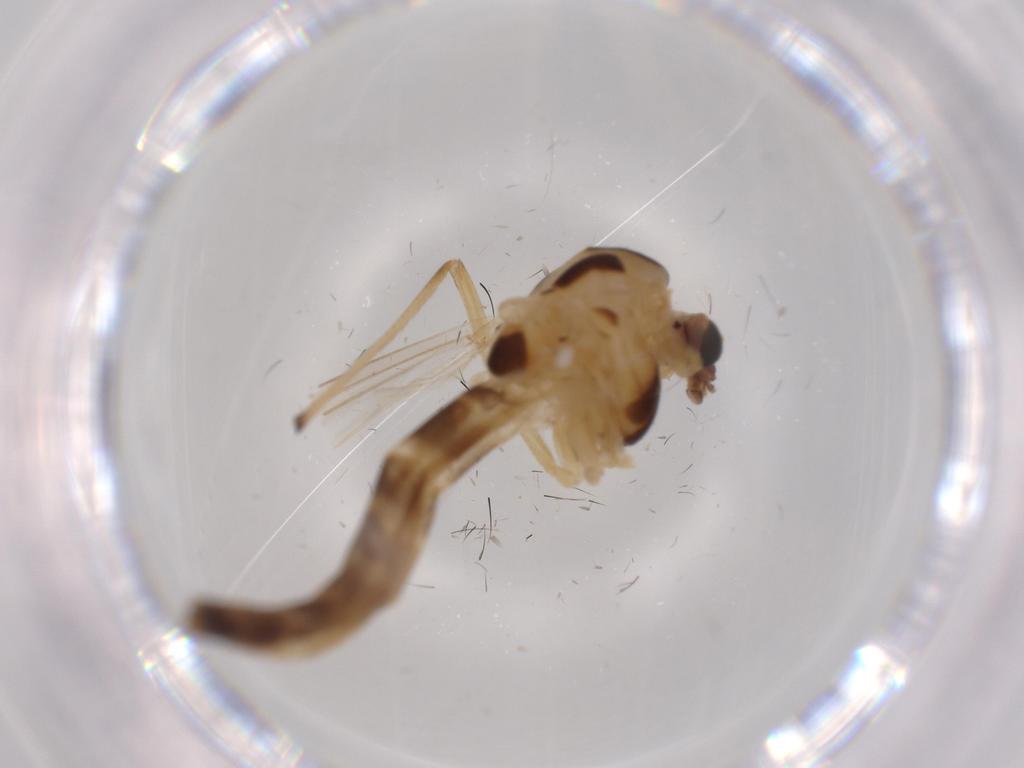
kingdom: Animalia
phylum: Arthropoda
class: Insecta
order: Diptera
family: Chironomidae
